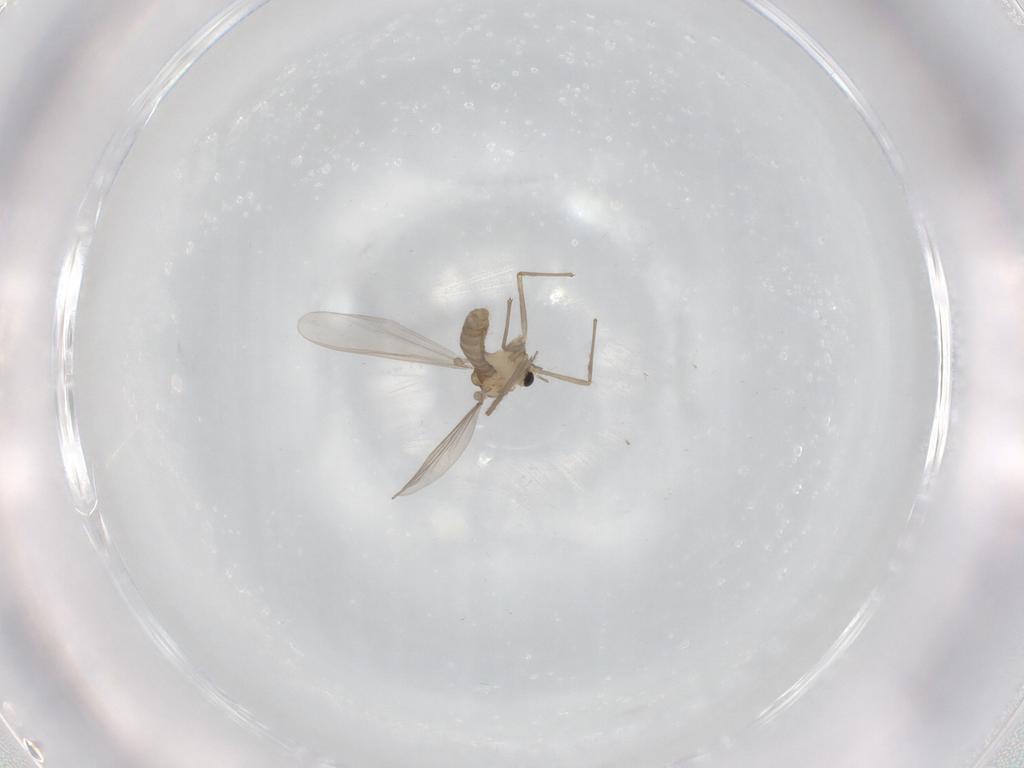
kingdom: Animalia
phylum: Arthropoda
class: Insecta
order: Diptera
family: Chironomidae
